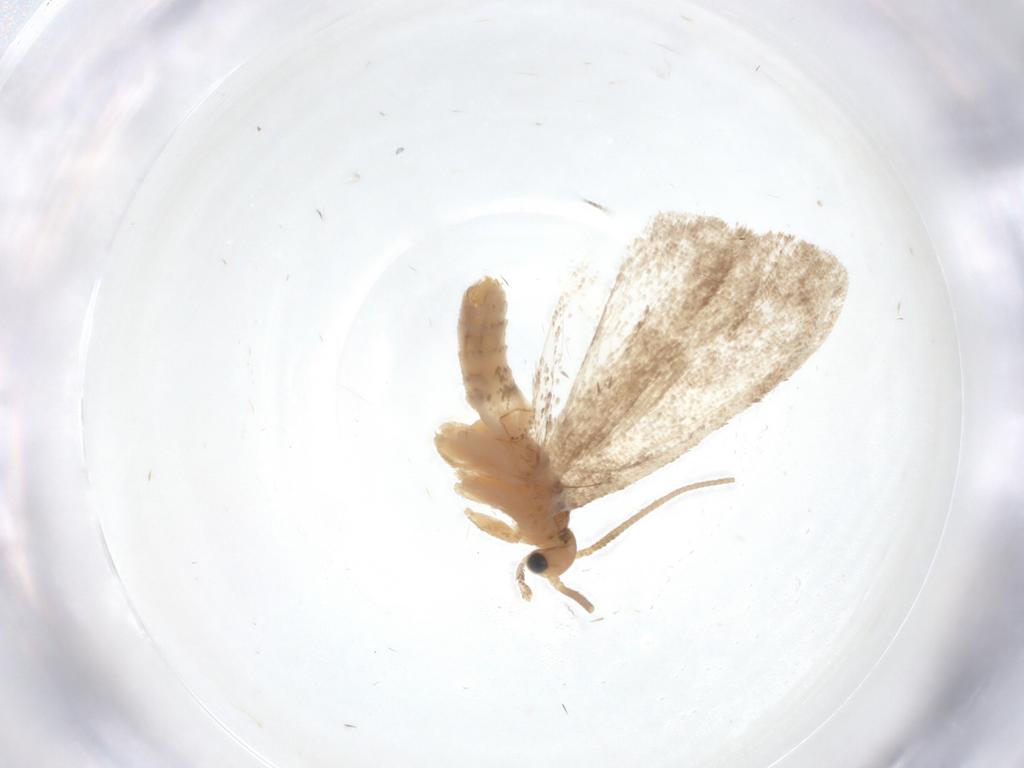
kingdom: Animalia
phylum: Arthropoda
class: Insecta
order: Lepidoptera
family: Dryadaulidae
